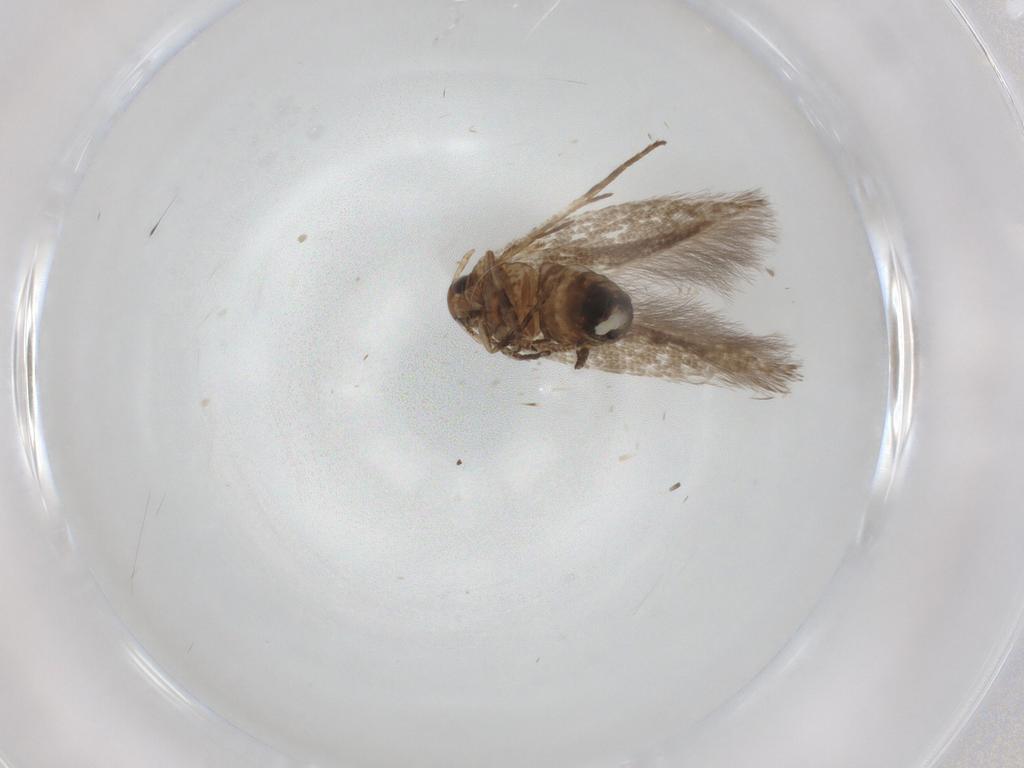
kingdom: Animalia
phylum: Arthropoda
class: Insecta
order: Lepidoptera
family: Cosmopterigidae
